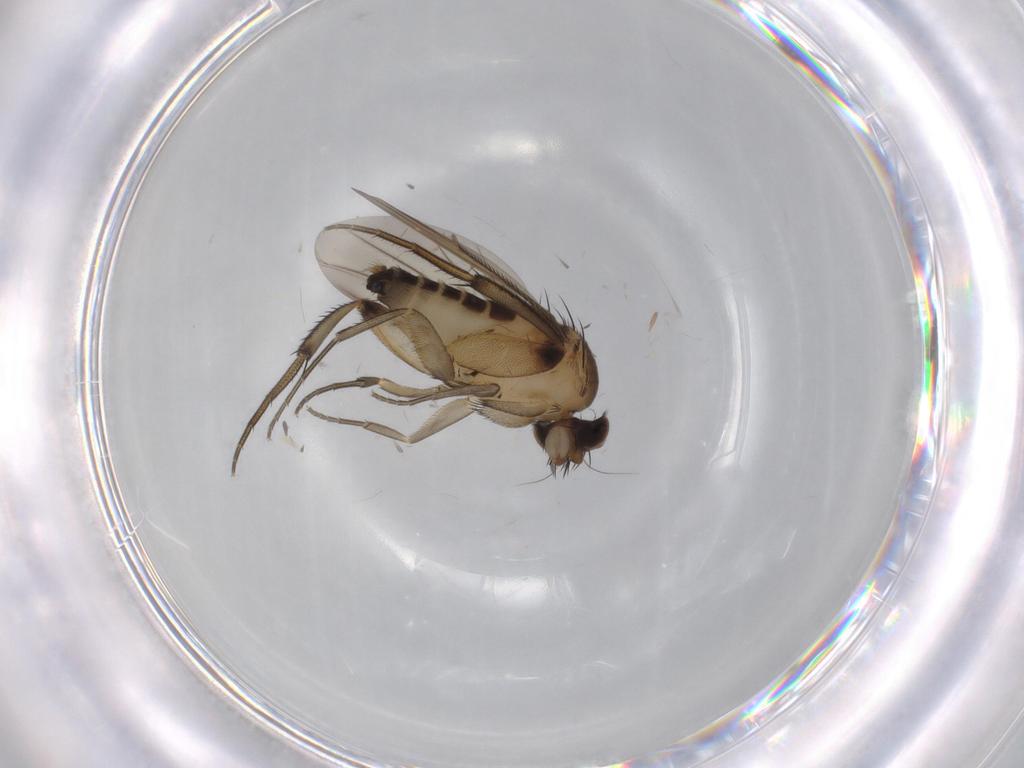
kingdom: Animalia
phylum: Arthropoda
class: Insecta
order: Diptera
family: Phoridae
